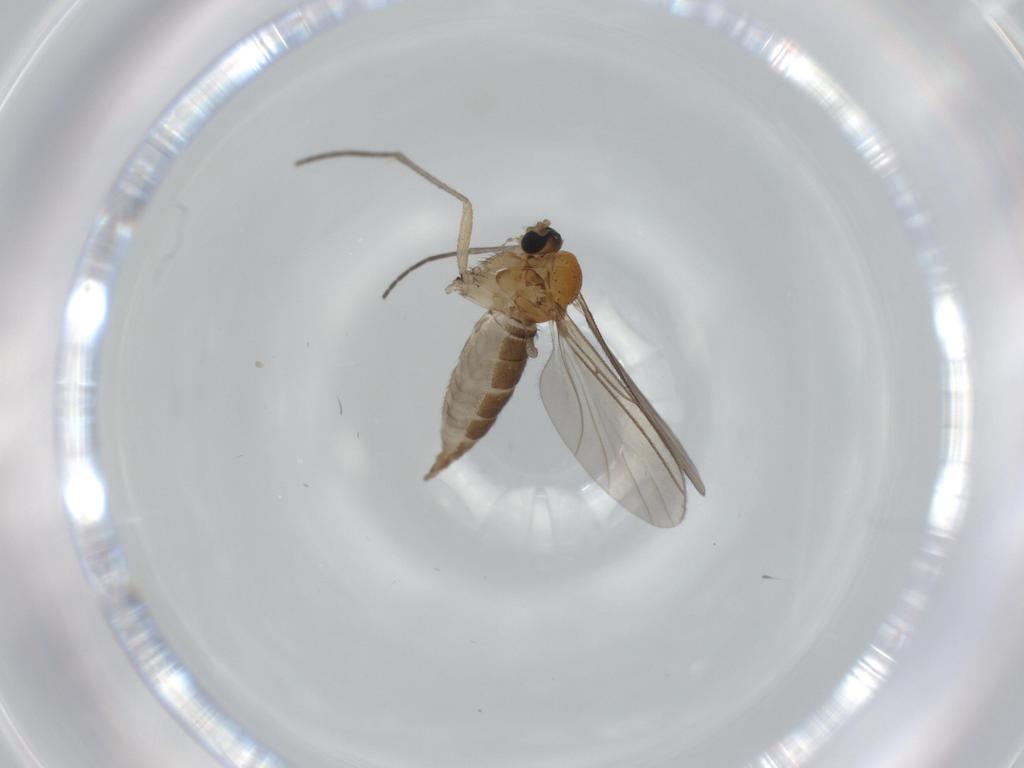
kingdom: Animalia
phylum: Arthropoda
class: Insecta
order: Diptera
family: Sciaridae
